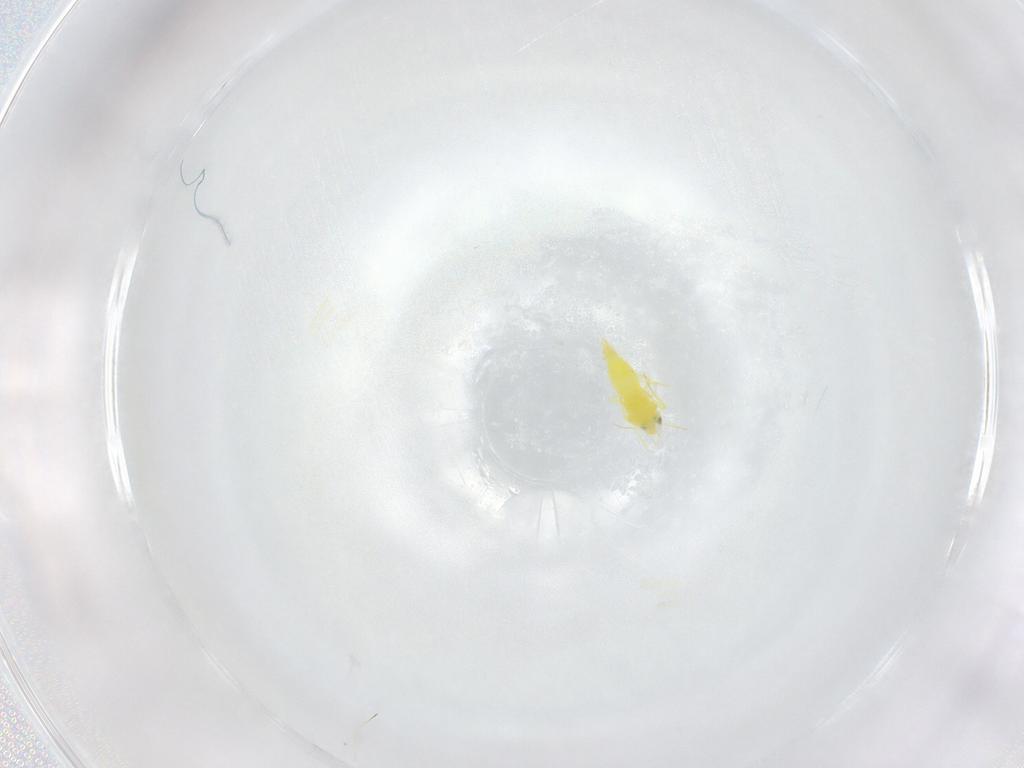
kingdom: Animalia
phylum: Arthropoda
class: Insecta
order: Hemiptera
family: Aleyrodidae
